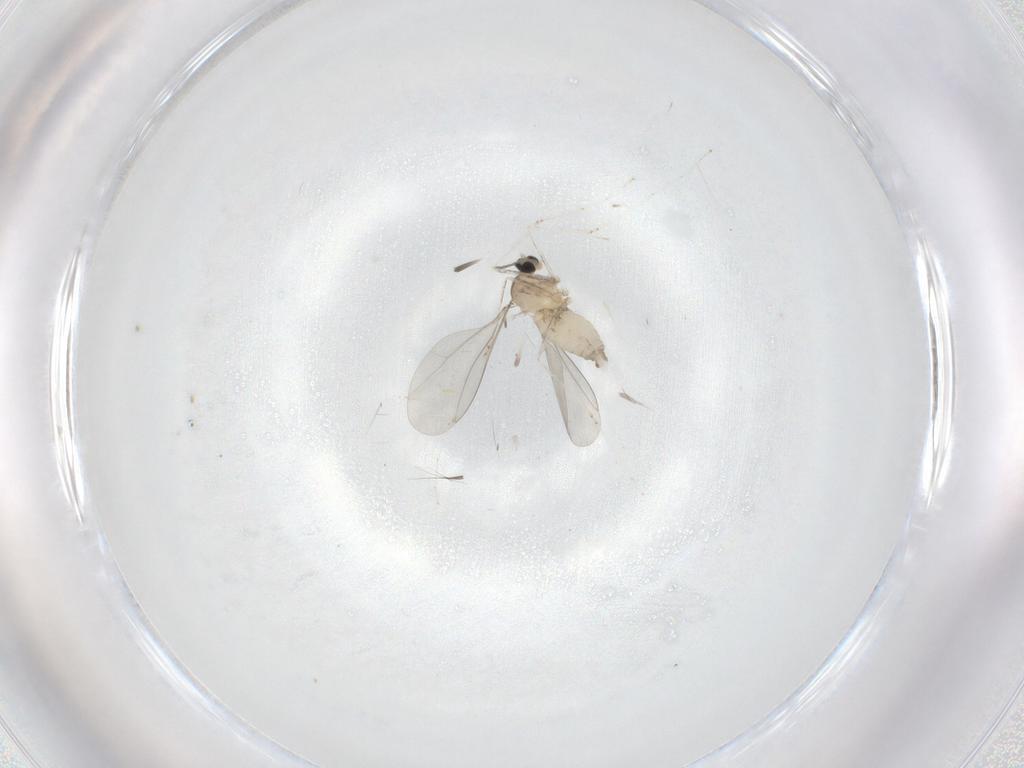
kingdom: Animalia
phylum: Arthropoda
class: Insecta
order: Diptera
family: Cecidomyiidae
